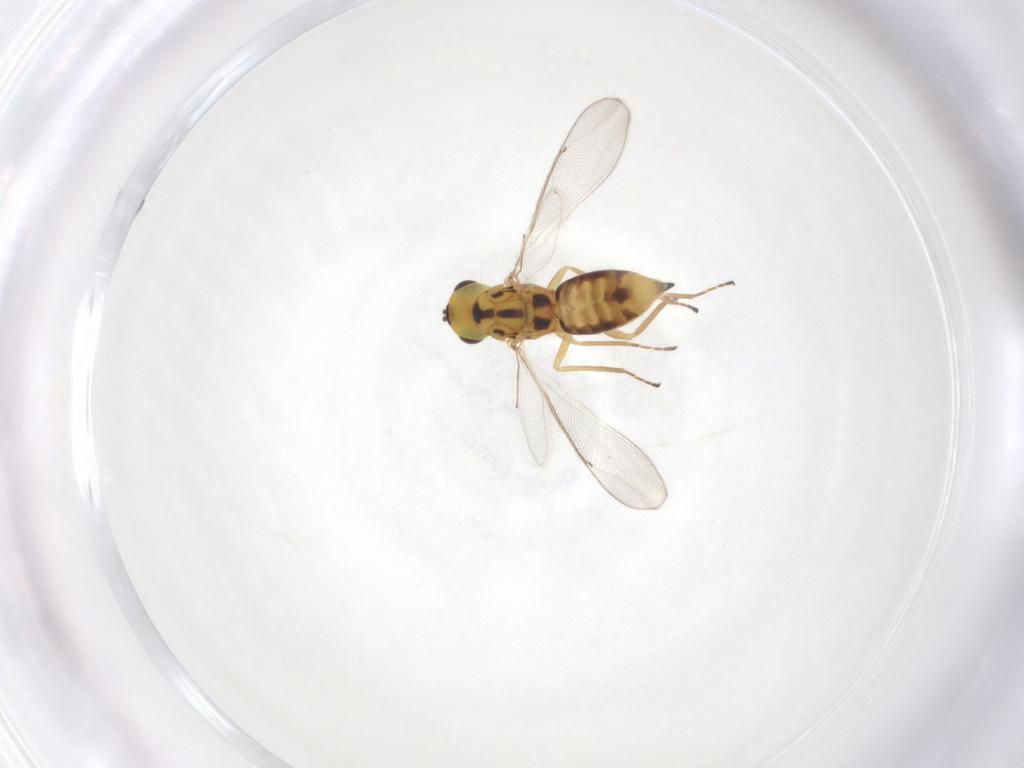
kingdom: Animalia
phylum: Arthropoda
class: Insecta
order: Hymenoptera
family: Eulophidae
